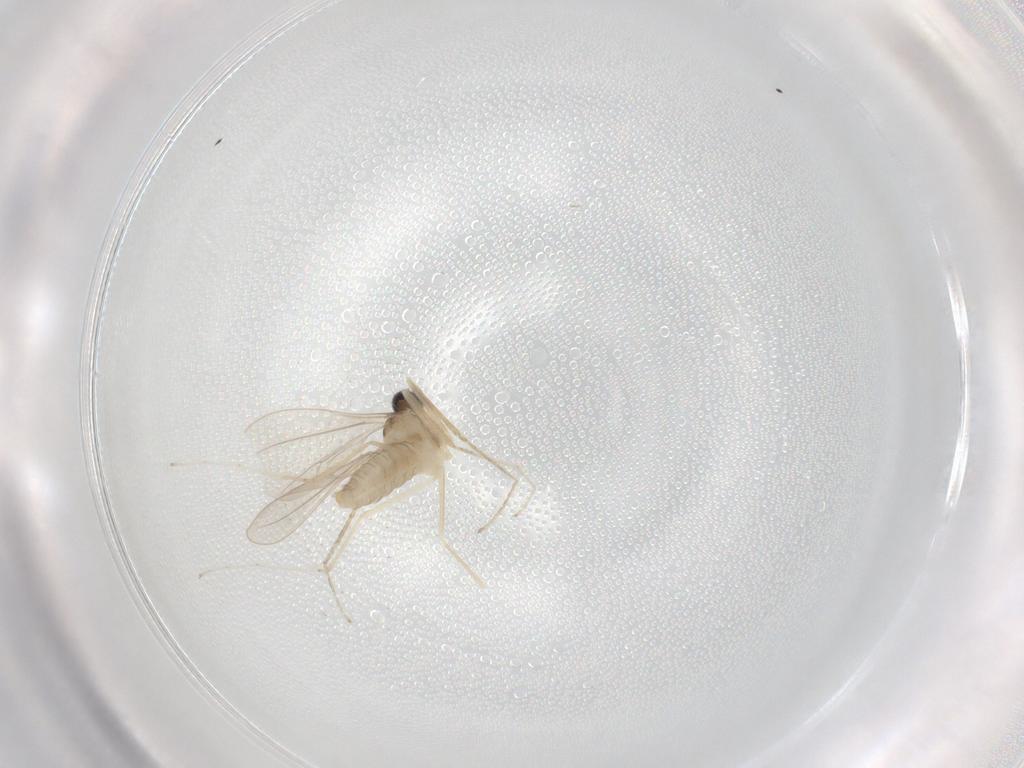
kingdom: Animalia
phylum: Arthropoda
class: Insecta
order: Diptera
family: Cecidomyiidae
